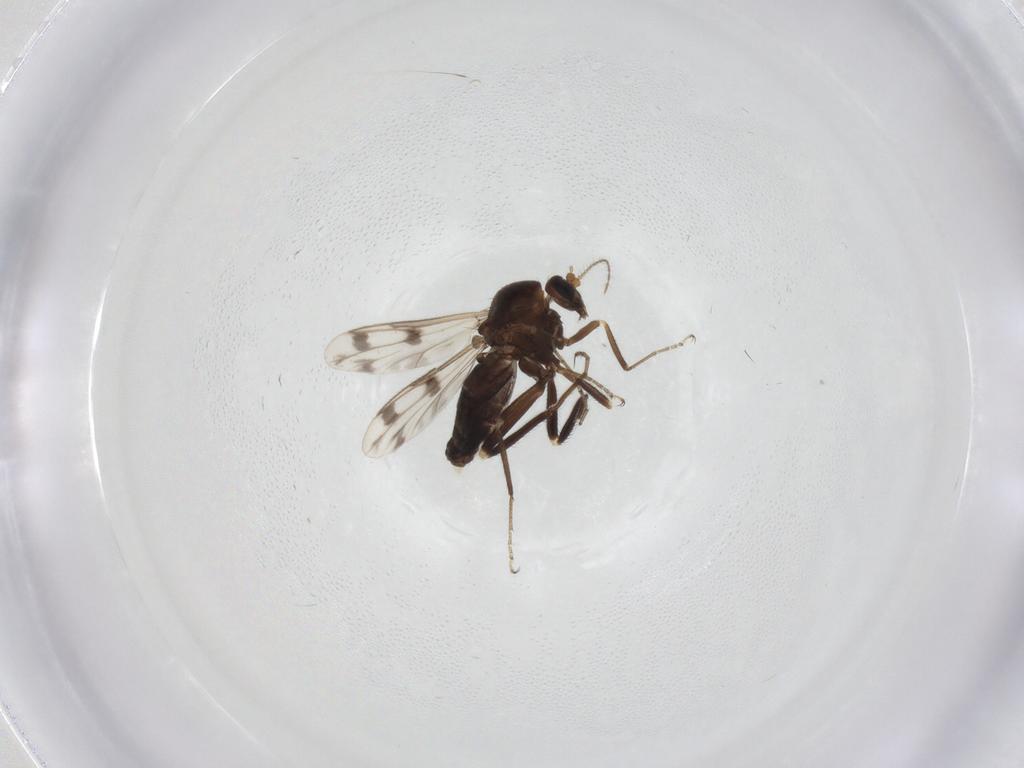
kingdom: Animalia
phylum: Arthropoda
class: Insecta
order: Diptera
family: Ceratopogonidae
